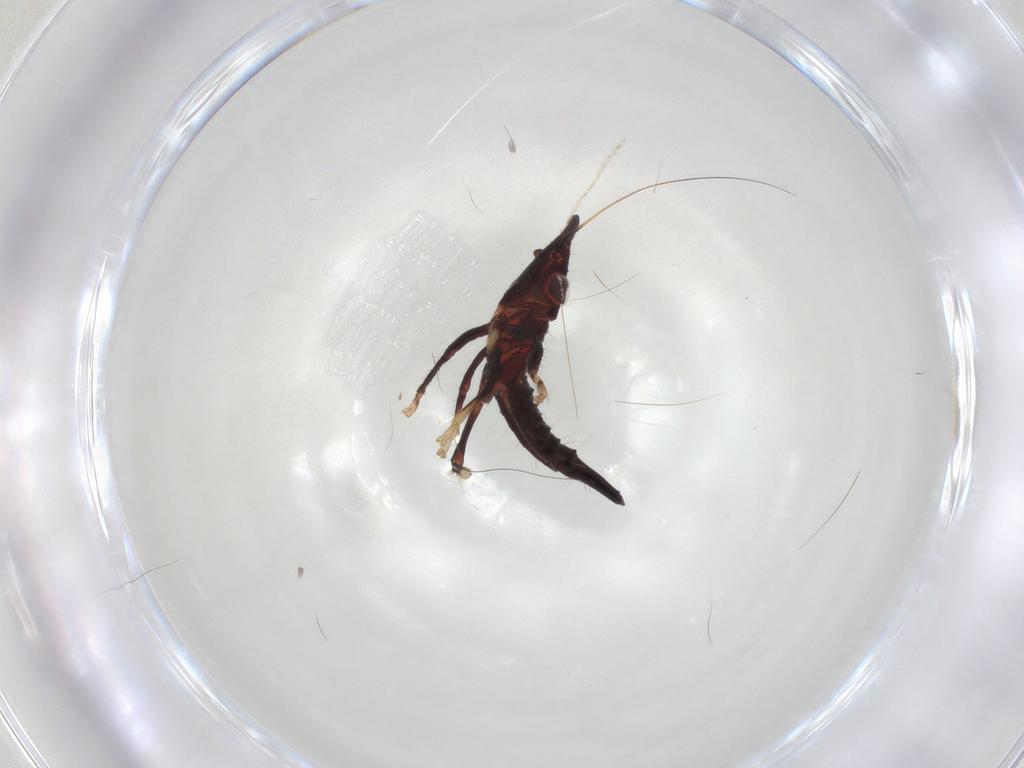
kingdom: Animalia
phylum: Arthropoda
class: Insecta
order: Hemiptera
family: Cicadellidae
